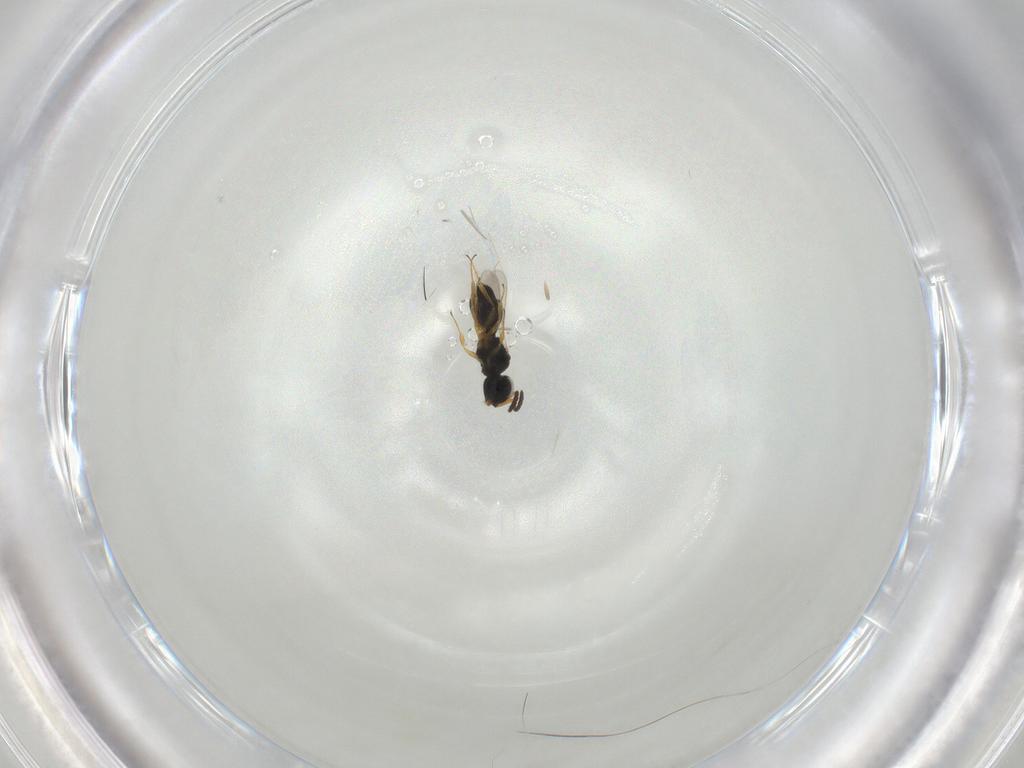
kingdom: Animalia
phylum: Arthropoda
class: Insecta
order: Hymenoptera
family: Scelionidae
